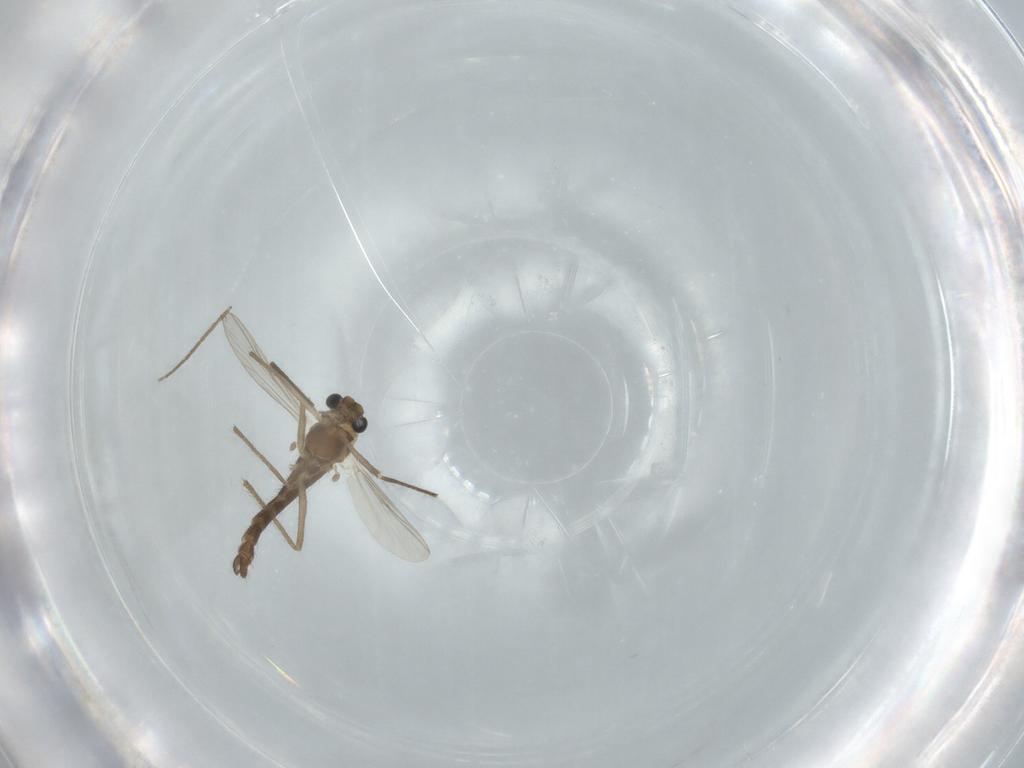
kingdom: Animalia
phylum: Arthropoda
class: Insecta
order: Diptera
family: Chironomidae
